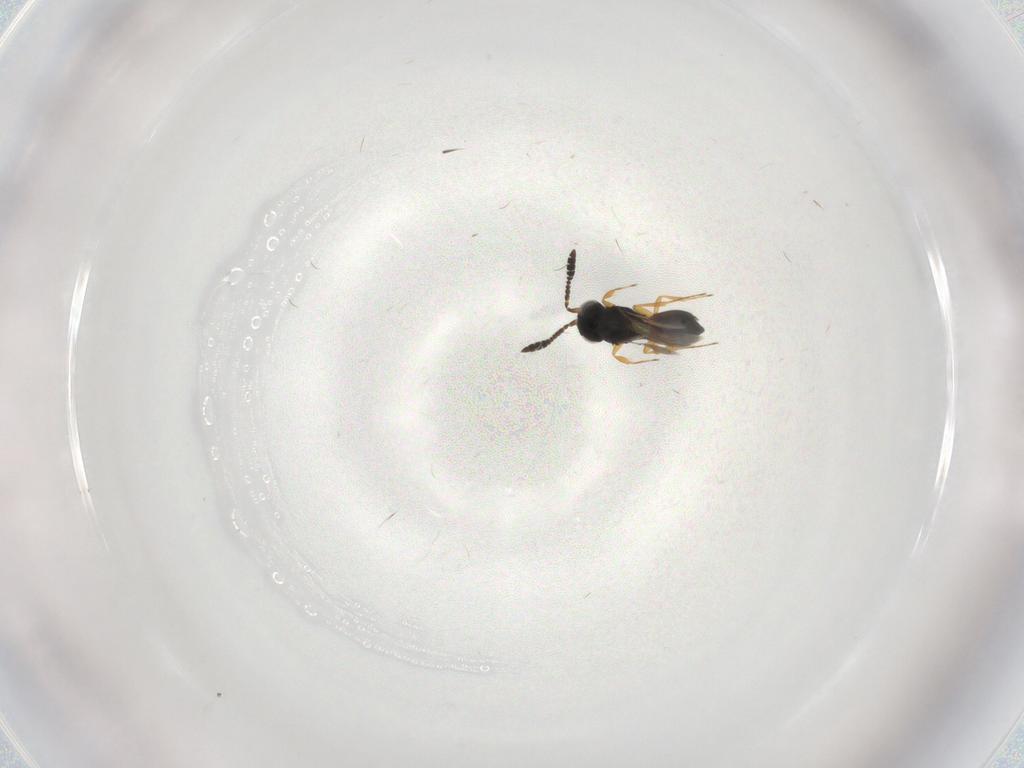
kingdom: Animalia
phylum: Arthropoda
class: Insecta
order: Hymenoptera
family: Scelionidae
